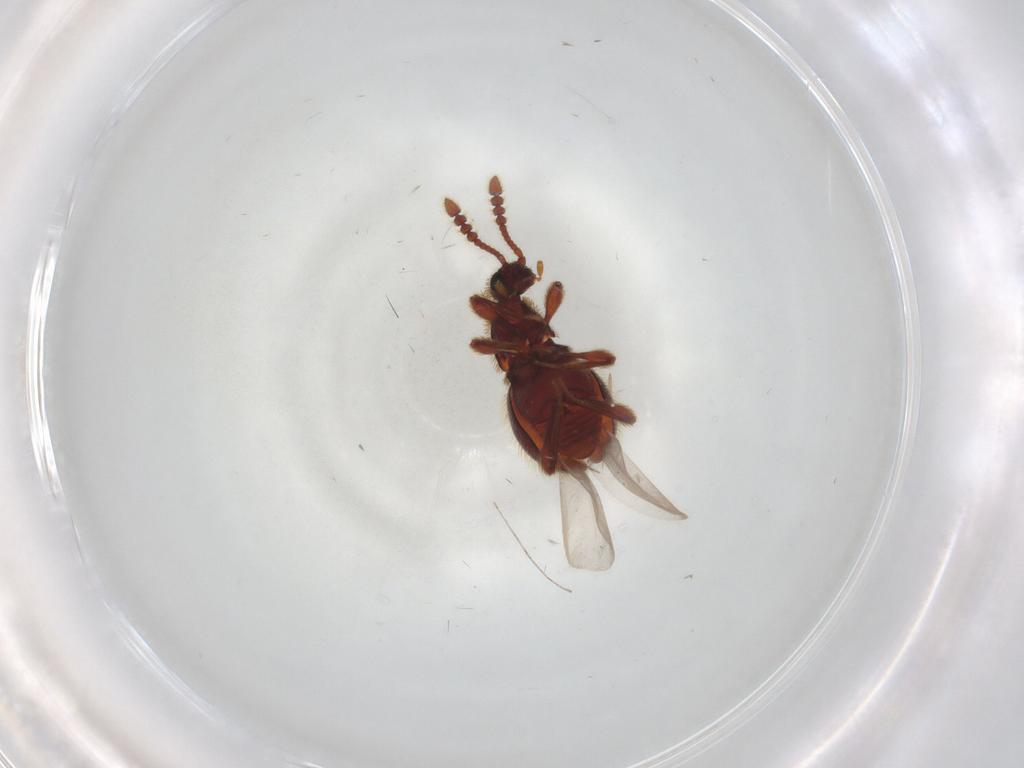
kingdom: Animalia
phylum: Arthropoda
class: Insecta
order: Coleoptera
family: Staphylinidae
